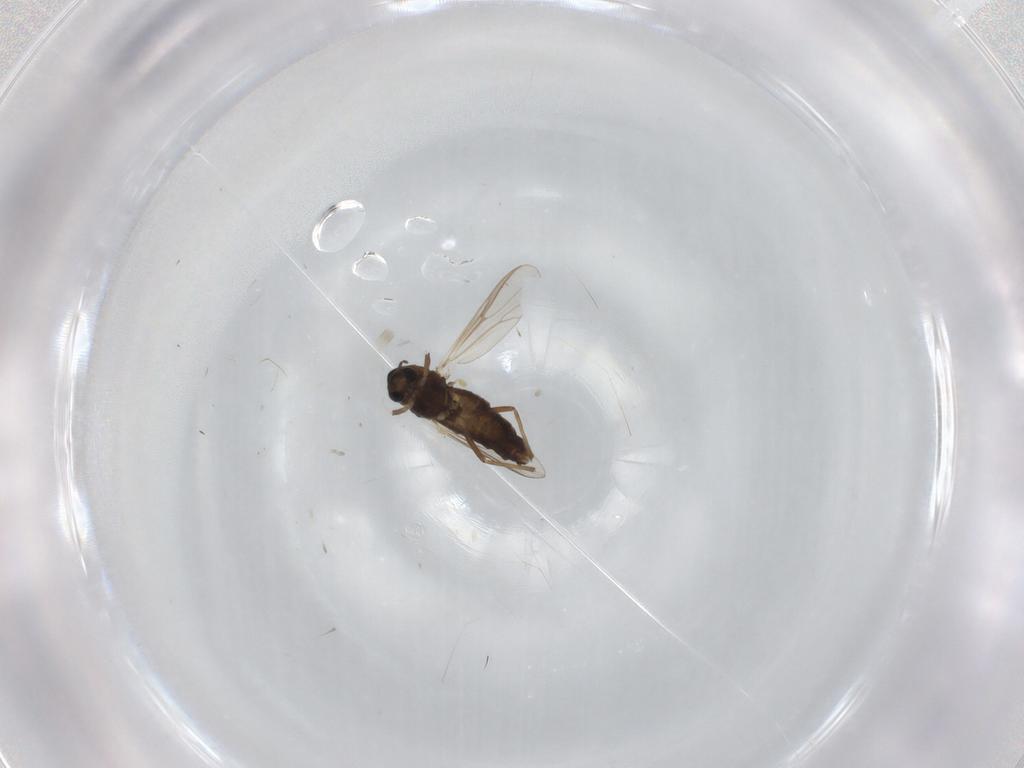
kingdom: Animalia
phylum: Arthropoda
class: Insecta
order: Diptera
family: Chironomidae
